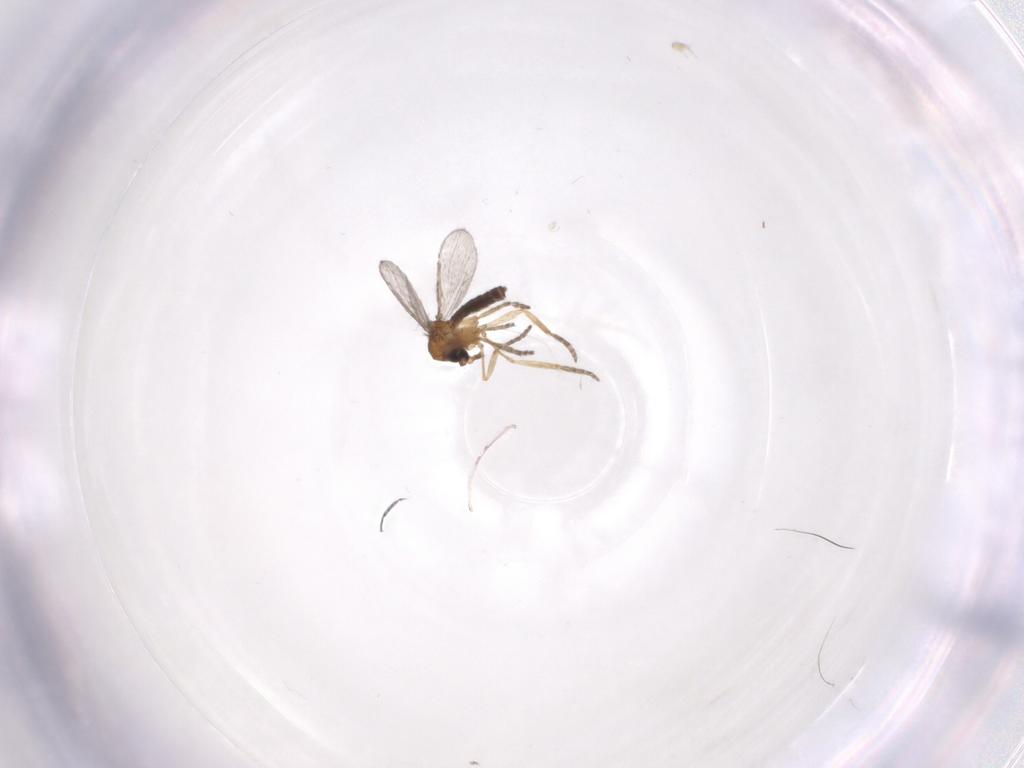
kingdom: Animalia
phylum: Arthropoda
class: Insecta
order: Diptera
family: Cecidomyiidae
